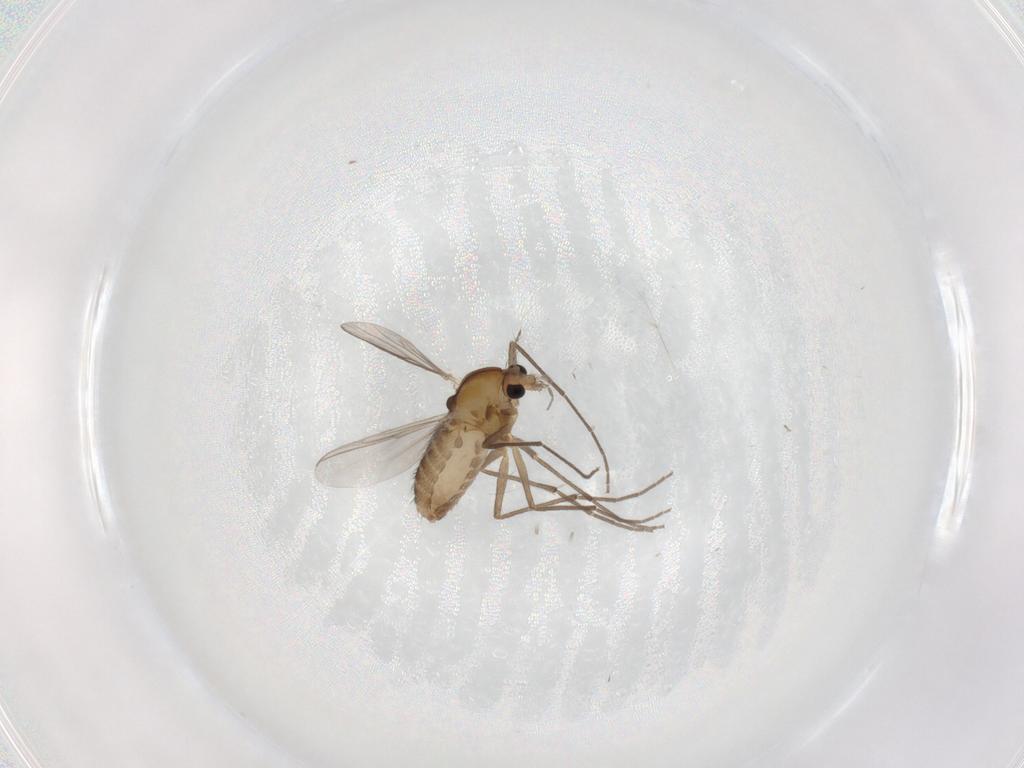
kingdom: Animalia
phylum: Arthropoda
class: Insecta
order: Diptera
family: Chironomidae
